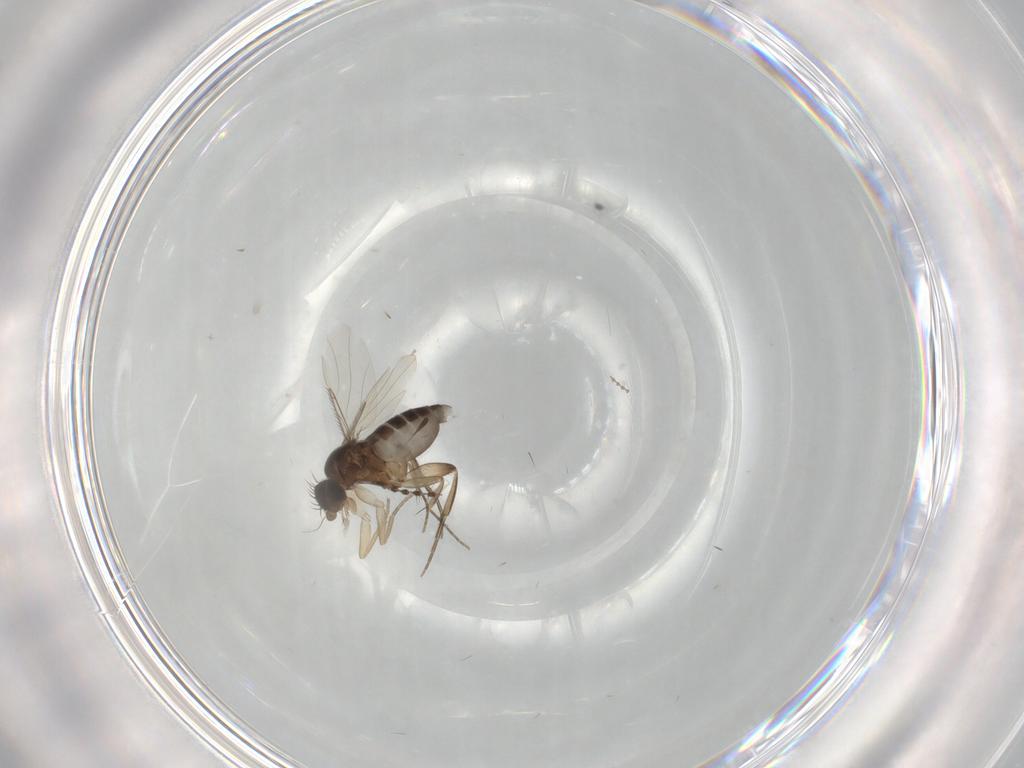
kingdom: Animalia
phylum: Arthropoda
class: Insecta
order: Diptera
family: Phoridae
